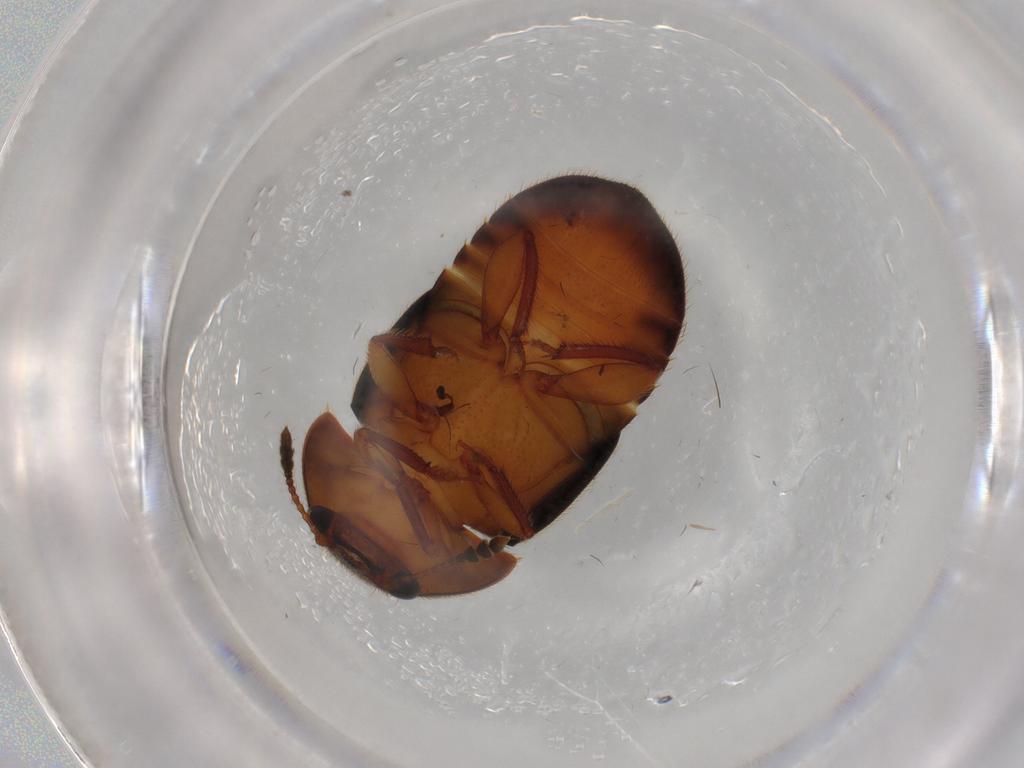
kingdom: Animalia
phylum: Arthropoda
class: Insecta
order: Coleoptera
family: Nitidulidae
